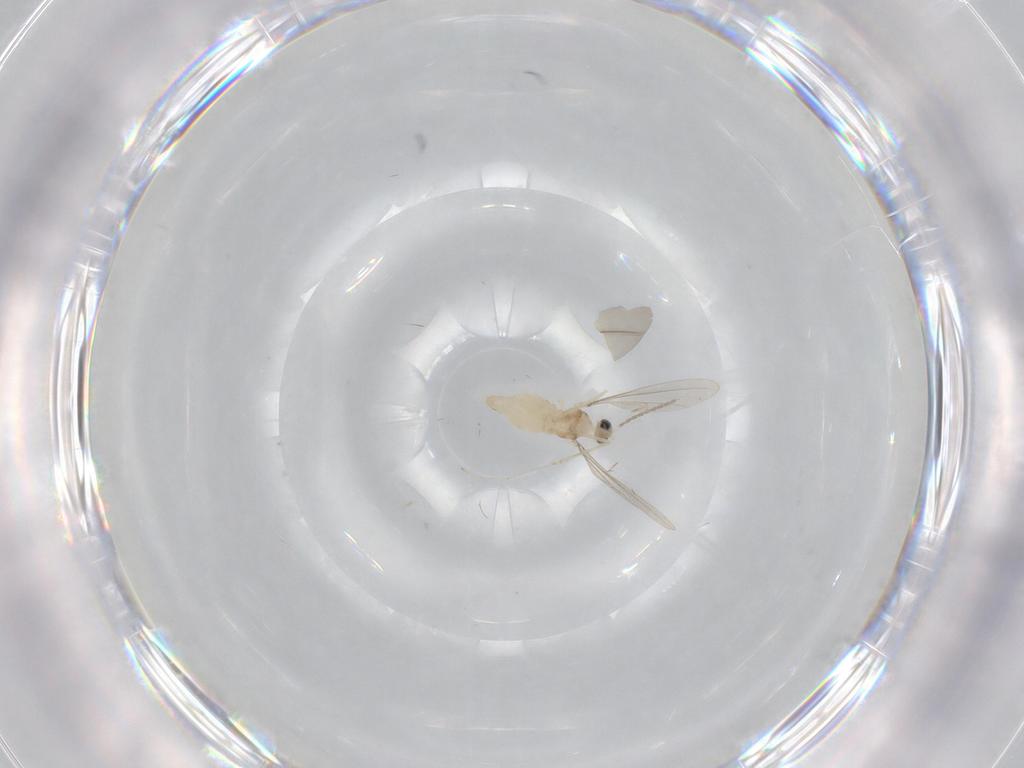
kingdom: Animalia
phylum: Arthropoda
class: Insecta
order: Diptera
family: Cecidomyiidae
